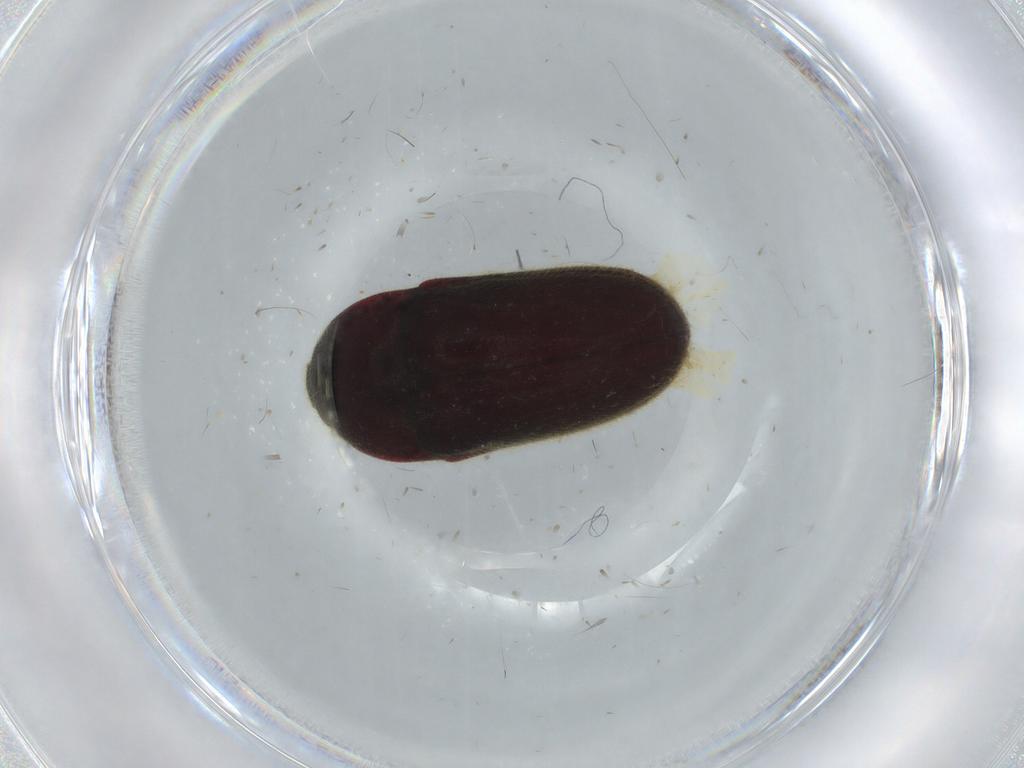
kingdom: Animalia
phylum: Arthropoda
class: Insecta
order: Coleoptera
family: Throscidae
